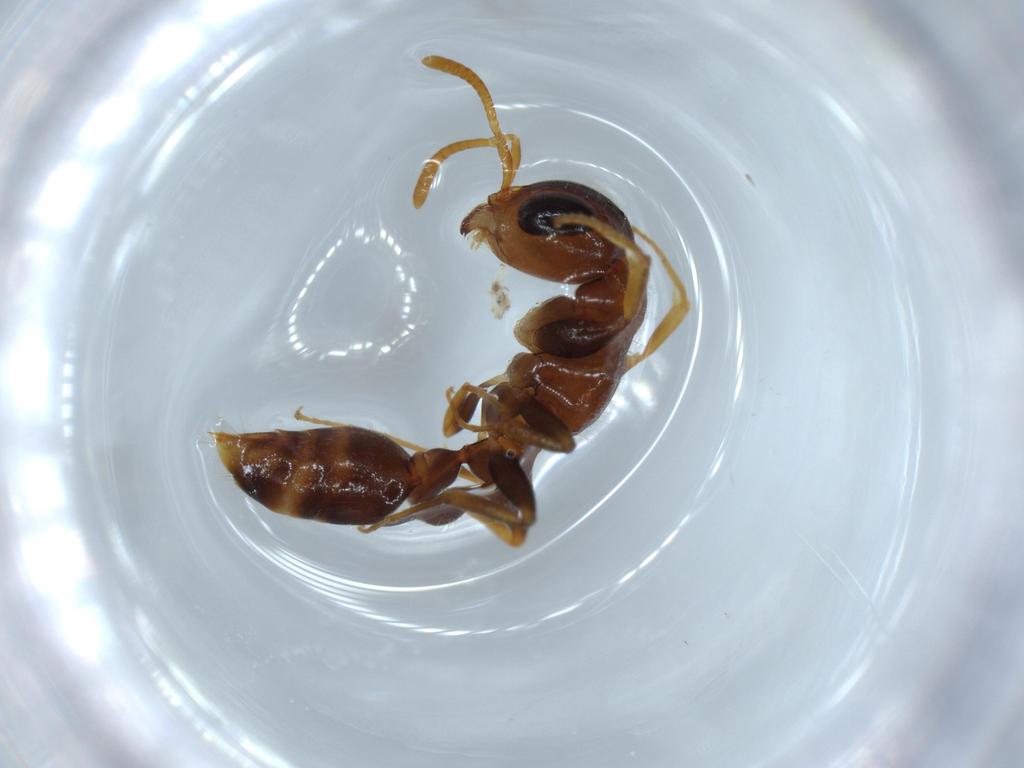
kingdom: Animalia
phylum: Arthropoda
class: Insecta
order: Hymenoptera
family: Formicidae
